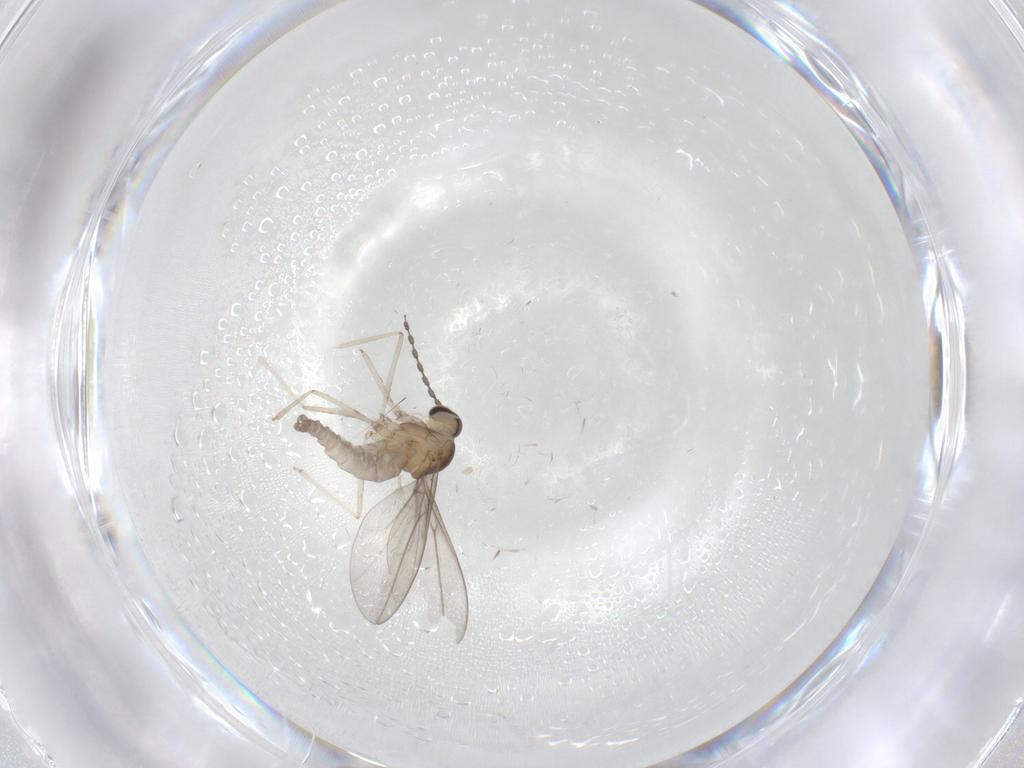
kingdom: Animalia
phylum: Arthropoda
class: Insecta
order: Diptera
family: Cecidomyiidae
